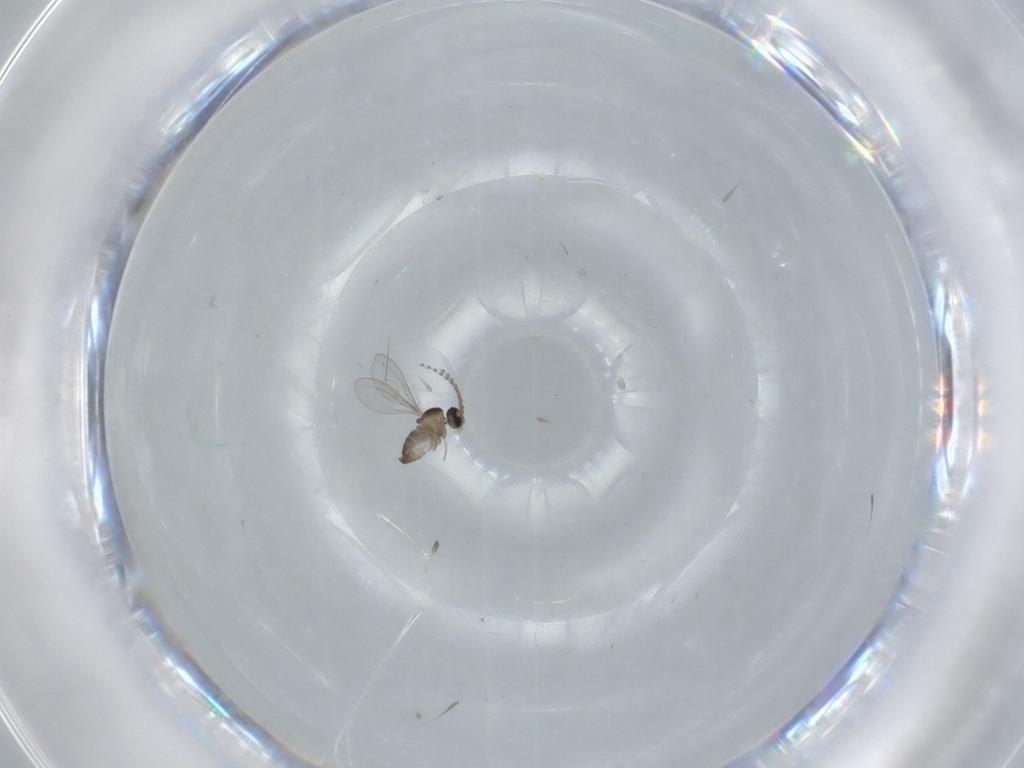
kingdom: Animalia
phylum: Arthropoda
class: Insecta
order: Diptera
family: Cecidomyiidae
